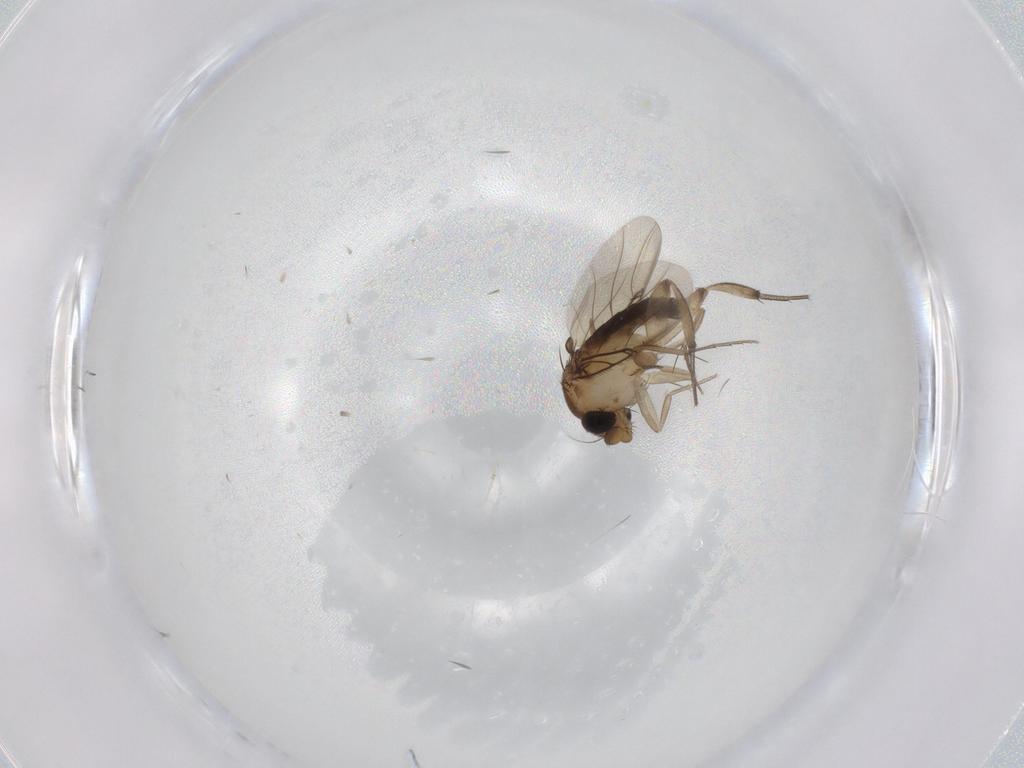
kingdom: Animalia
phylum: Arthropoda
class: Insecta
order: Diptera
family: Phoridae
